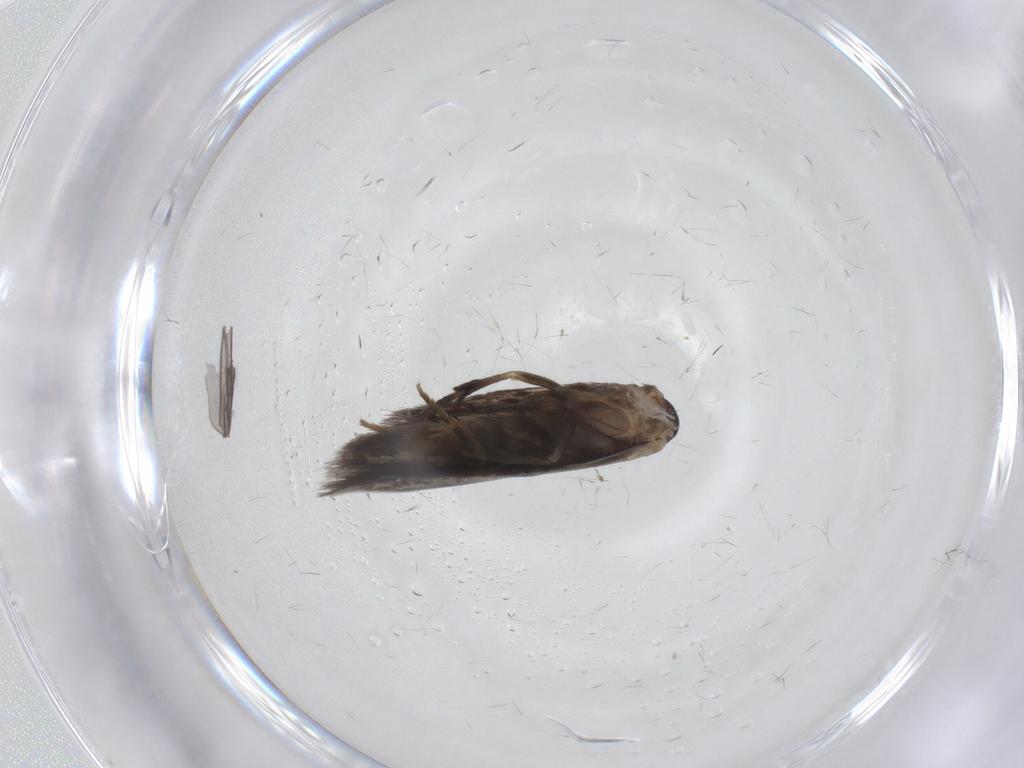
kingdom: Animalia
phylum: Arthropoda
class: Insecta
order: Lepidoptera
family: Elachistidae
